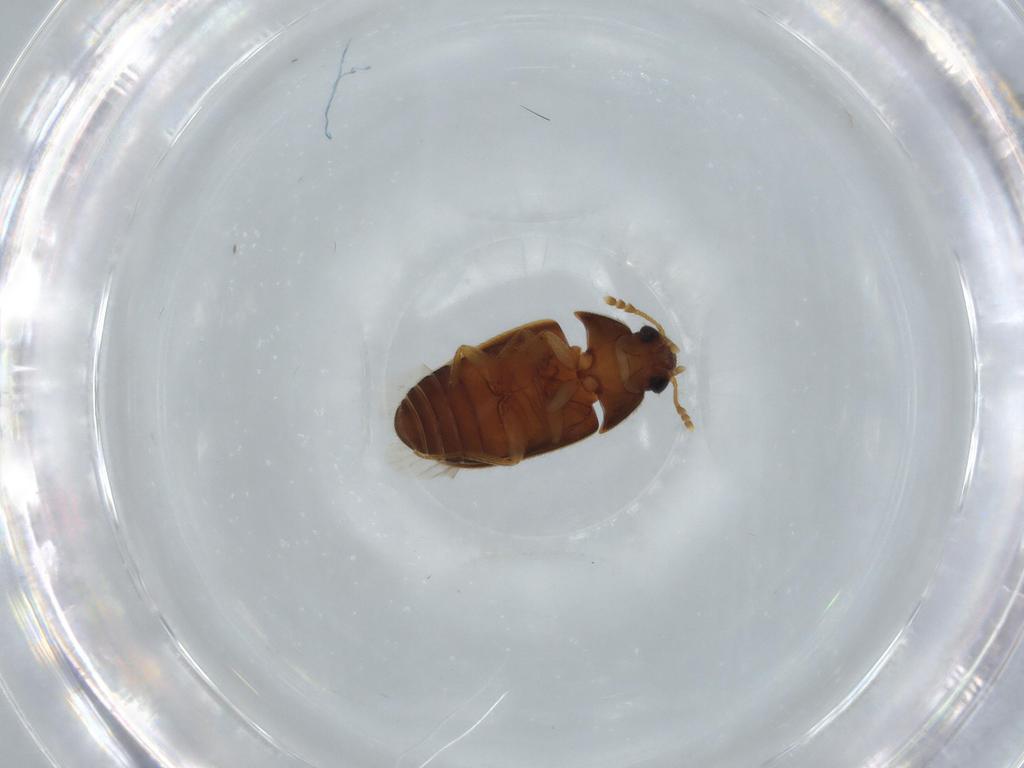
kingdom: Animalia
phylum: Arthropoda
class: Insecta
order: Coleoptera
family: Mycetophagidae
